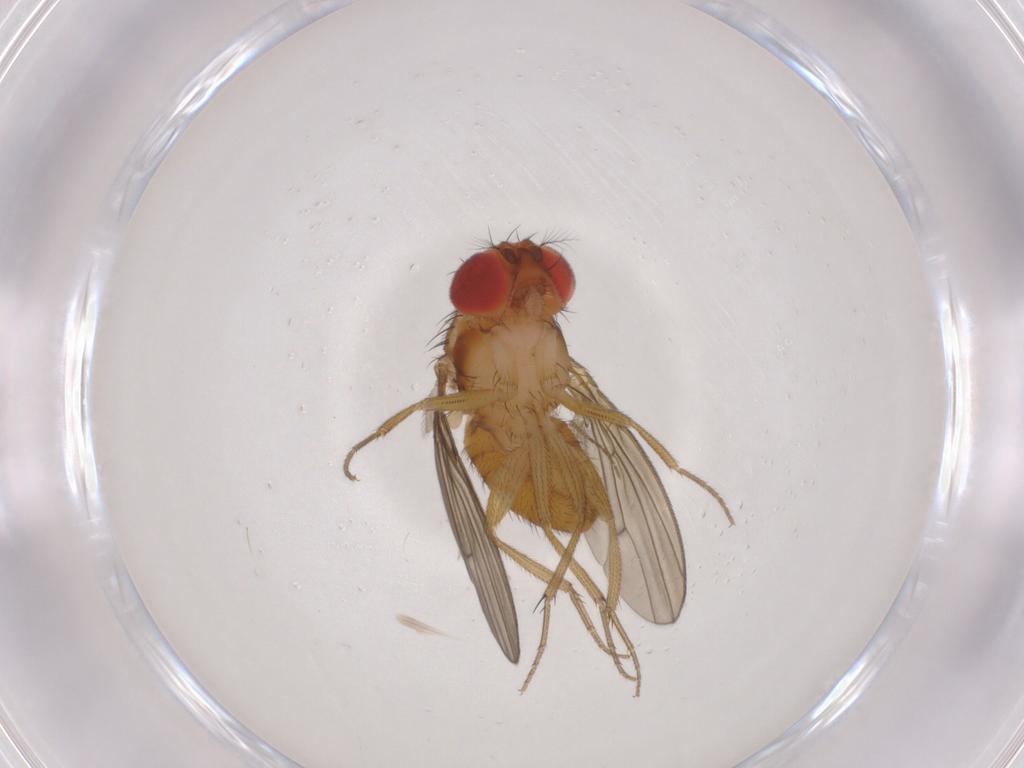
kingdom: Animalia
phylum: Arthropoda
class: Insecta
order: Diptera
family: Drosophilidae
